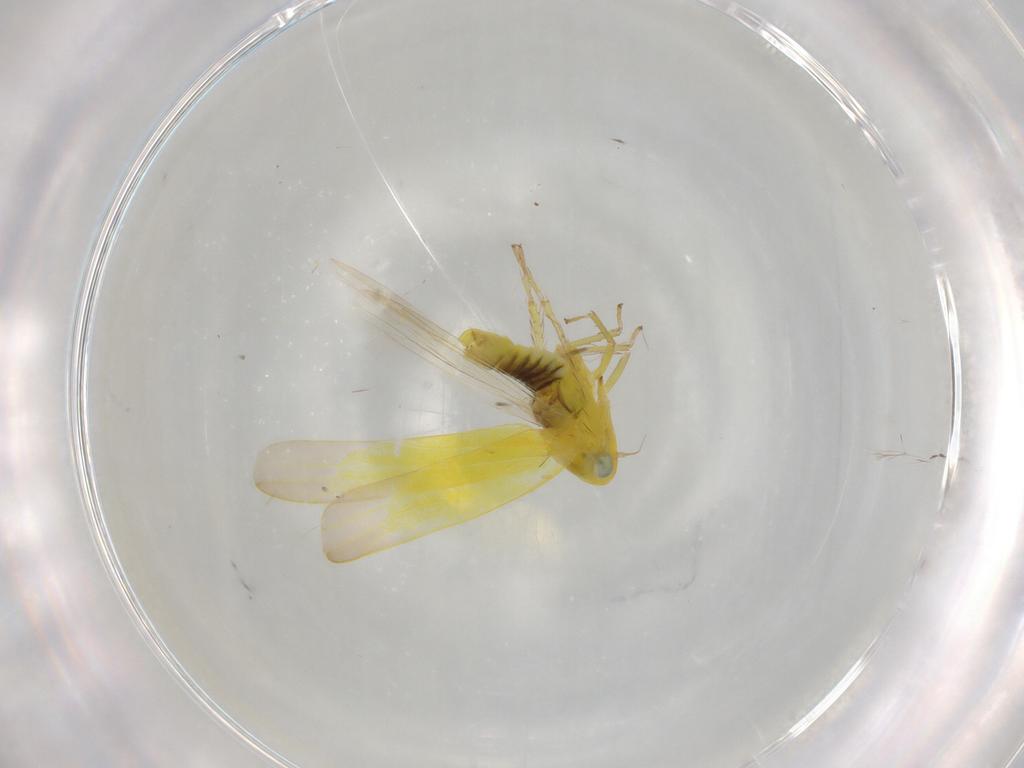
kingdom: Animalia
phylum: Arthropoda
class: Insecta
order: Hemiptera
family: Cicadellidae
